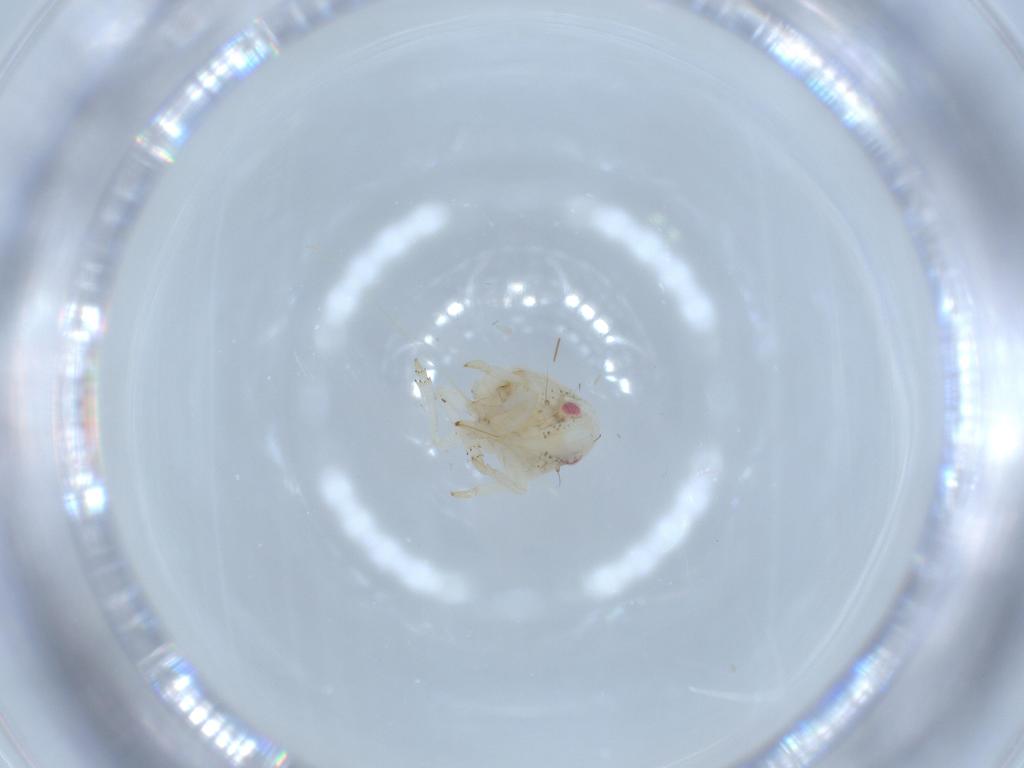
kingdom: Animalia
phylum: Arthropoda
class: Insecta
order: Hemiptera
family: Acanaloniidae
